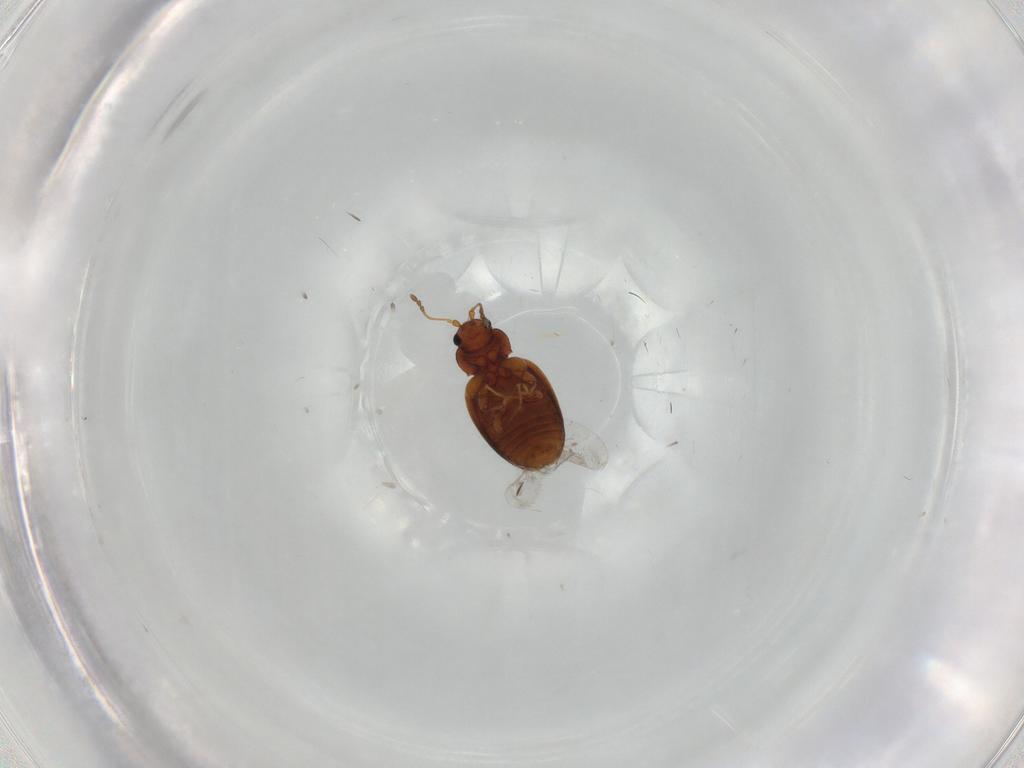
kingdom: Animalia
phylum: Arthropoda
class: Insecta
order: Coleoptera
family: Latridiidae
